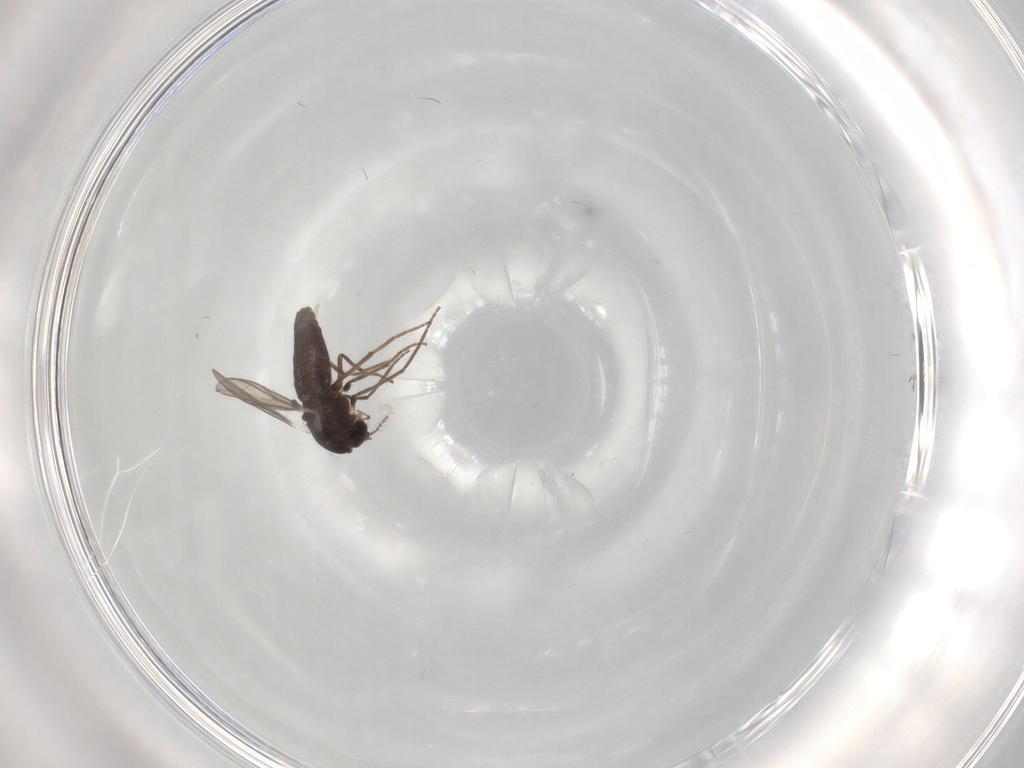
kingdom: Animalia
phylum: Arthropoda
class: Insecta
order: Diptera
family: Chironomidae
